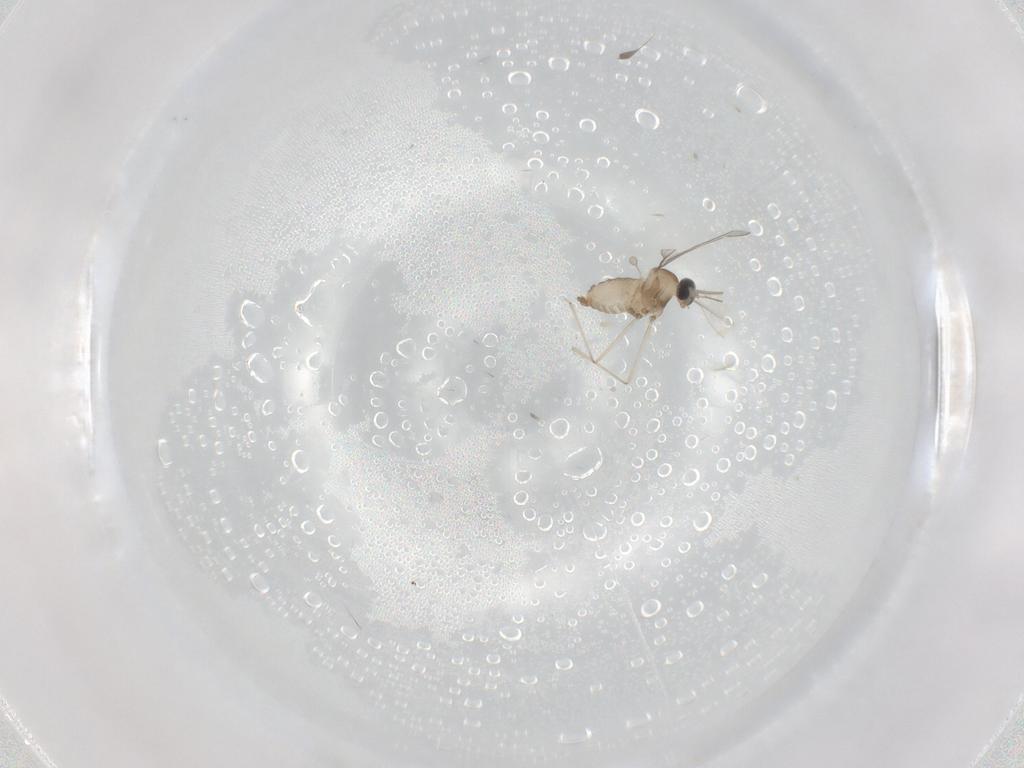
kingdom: Animalia
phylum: Arthropoda
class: Insecta
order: Diptera
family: Cecidomyiidae
